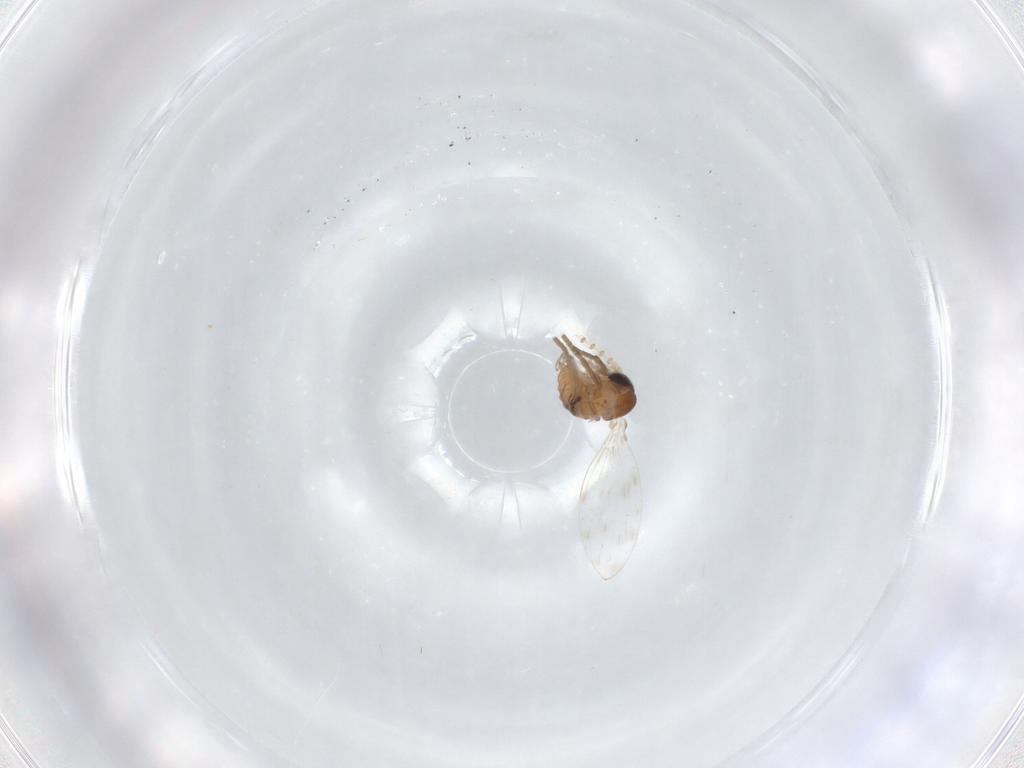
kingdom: Animalia
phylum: Arthropoda
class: Insecta
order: Diptera
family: Psychodidae
